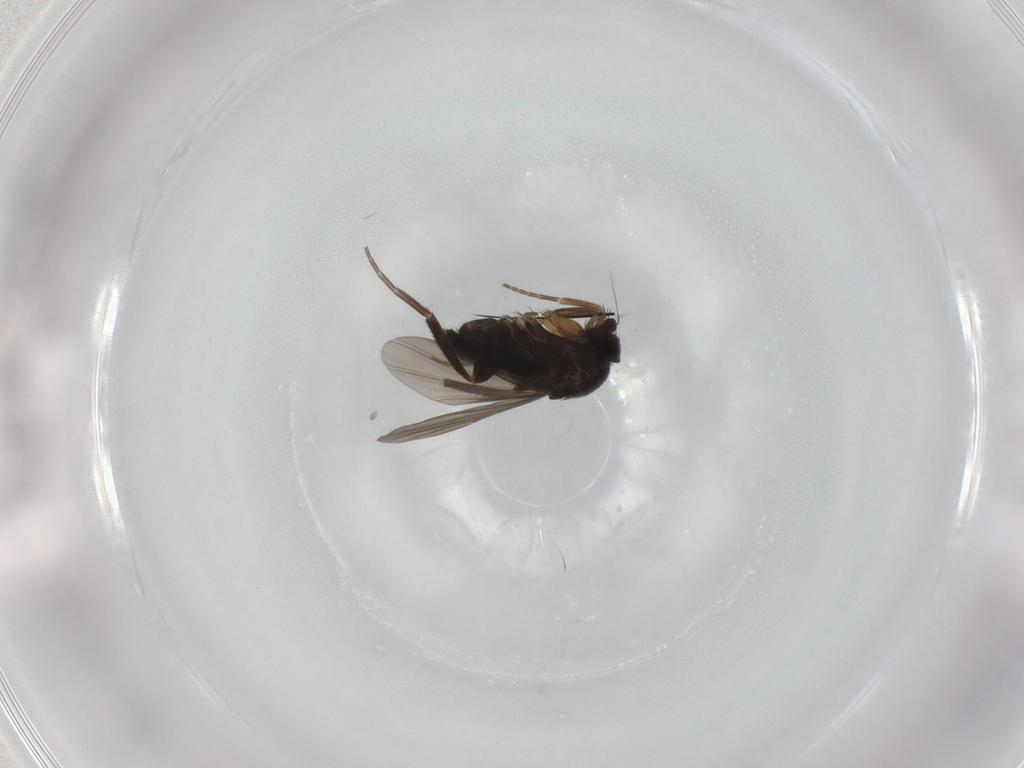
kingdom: Animalia
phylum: Arthropoda
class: Insecta
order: Diptera
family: Phoridae
